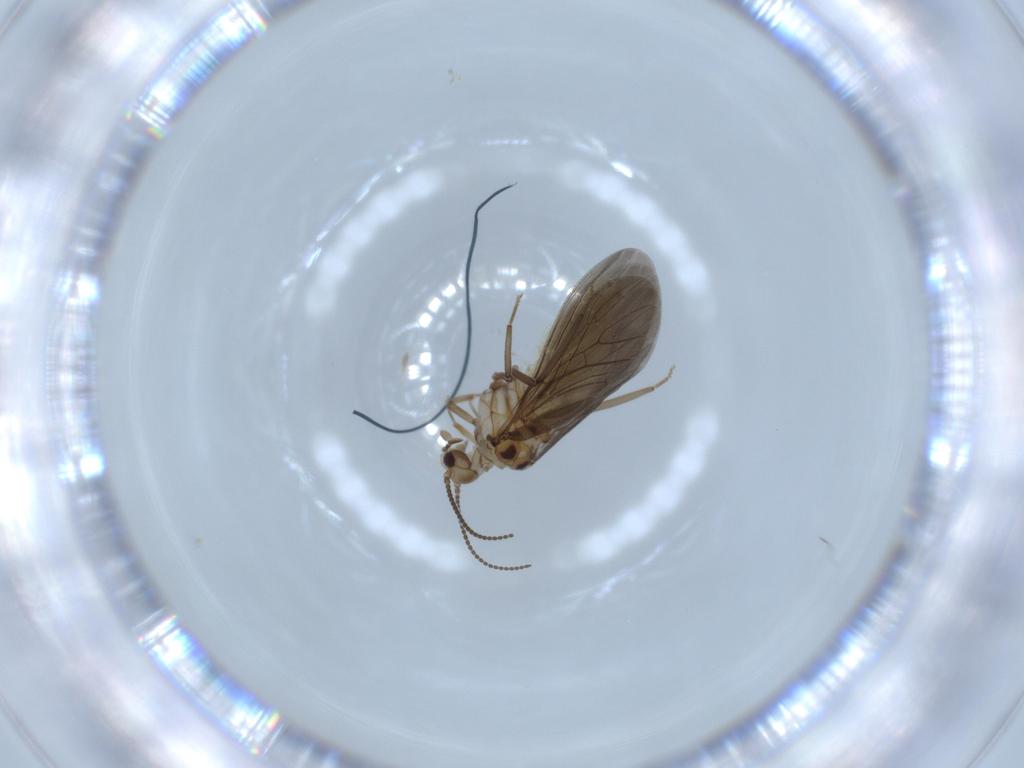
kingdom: Animalia
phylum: Arthropoda
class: Insecta
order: Neuroptera
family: Coniopterygidae
